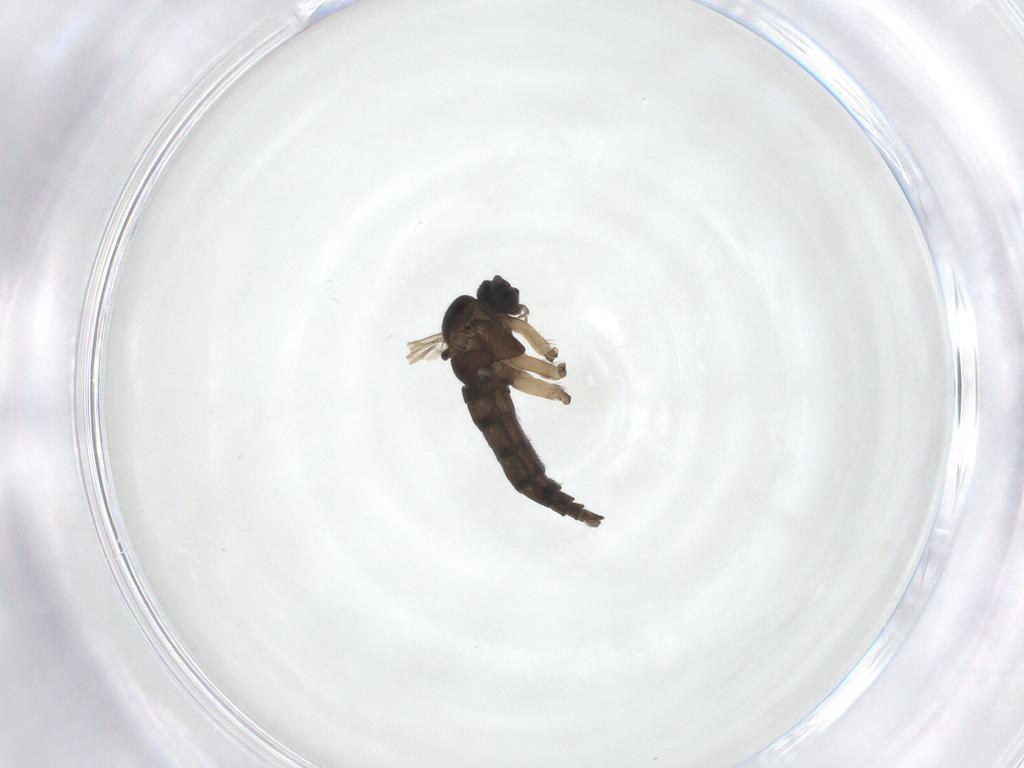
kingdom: Animalia
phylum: Arthropoda
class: Insecta
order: Diptera
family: Sciaridae
